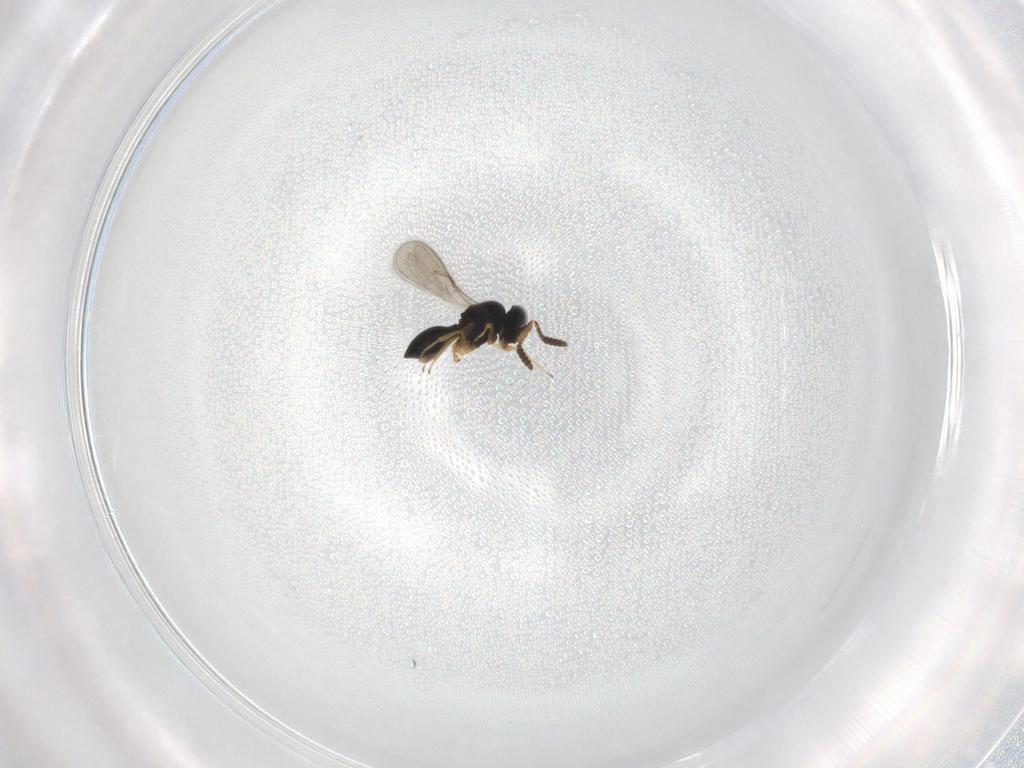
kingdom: Animalia
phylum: Arthropoda
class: Insecta
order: Hymenoptera
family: Scelionidae
